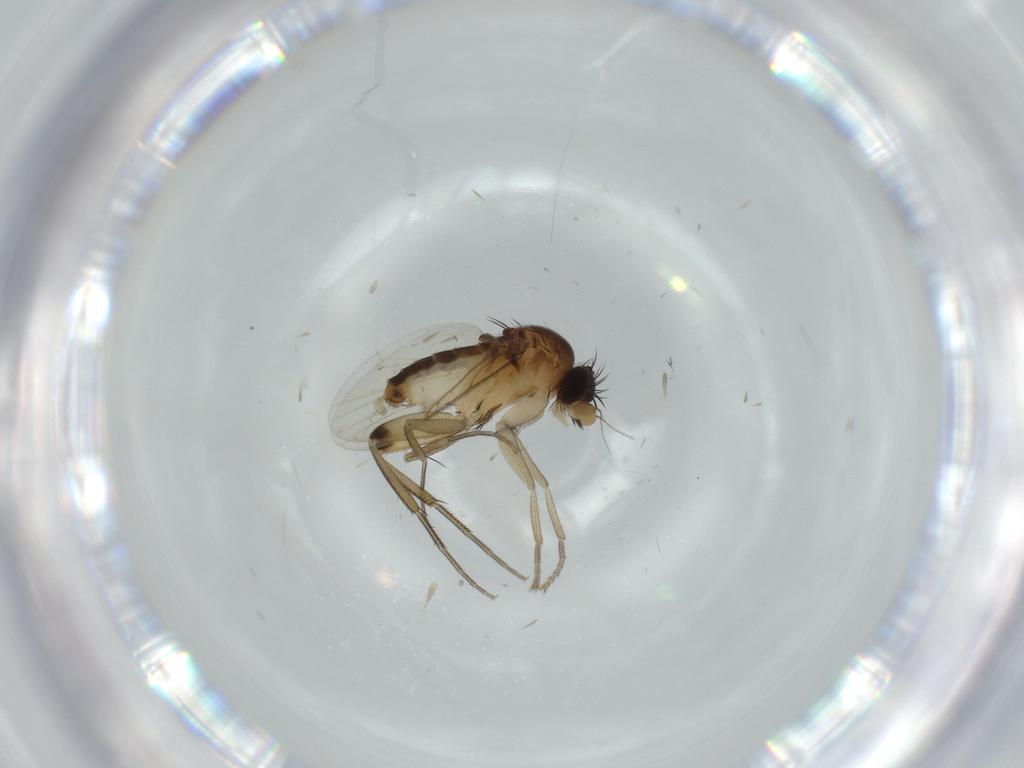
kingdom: Animalia
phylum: Arthropoda
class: Insecta
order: Diptera
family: Phoridae
